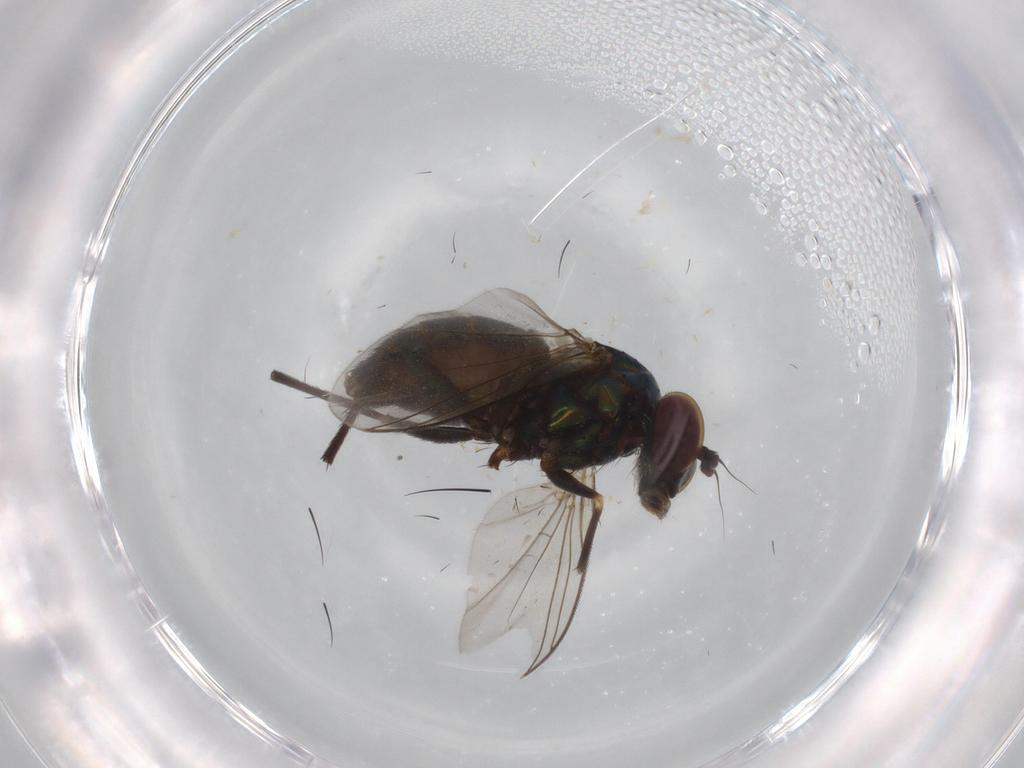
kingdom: Animalia
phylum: Arthropoda
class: Insecta
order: Diptera
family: Dolichopodidae
